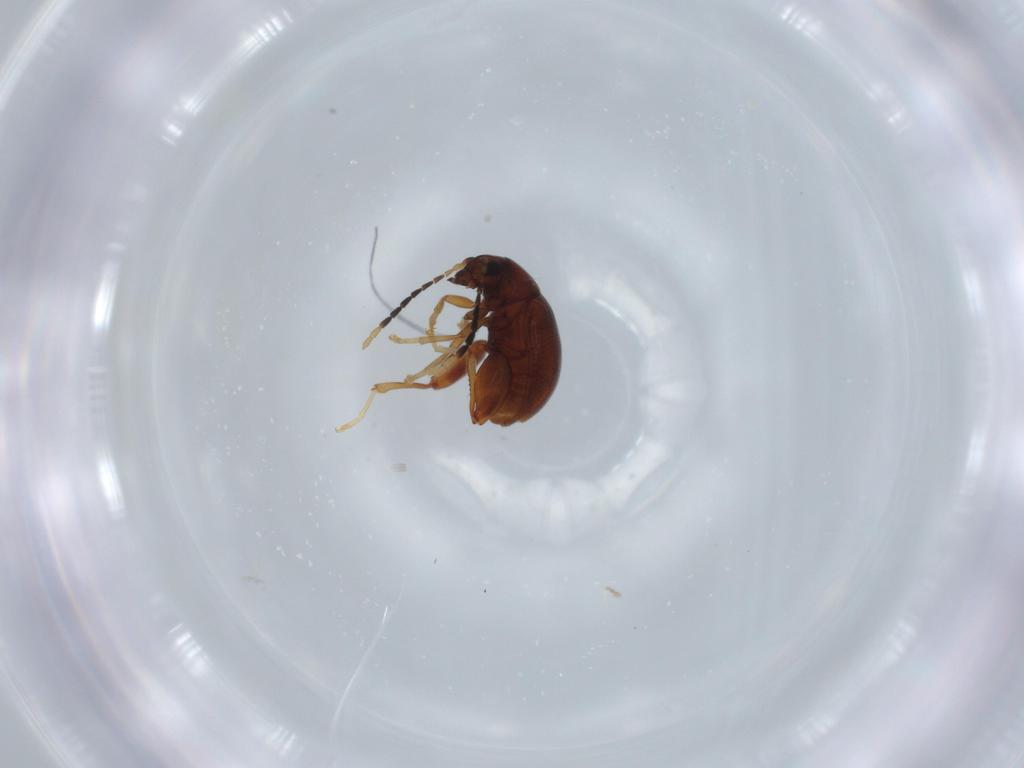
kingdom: Animalia
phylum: Arthropoda
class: Insecta
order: Coleoptera
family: Chrysomelidae
